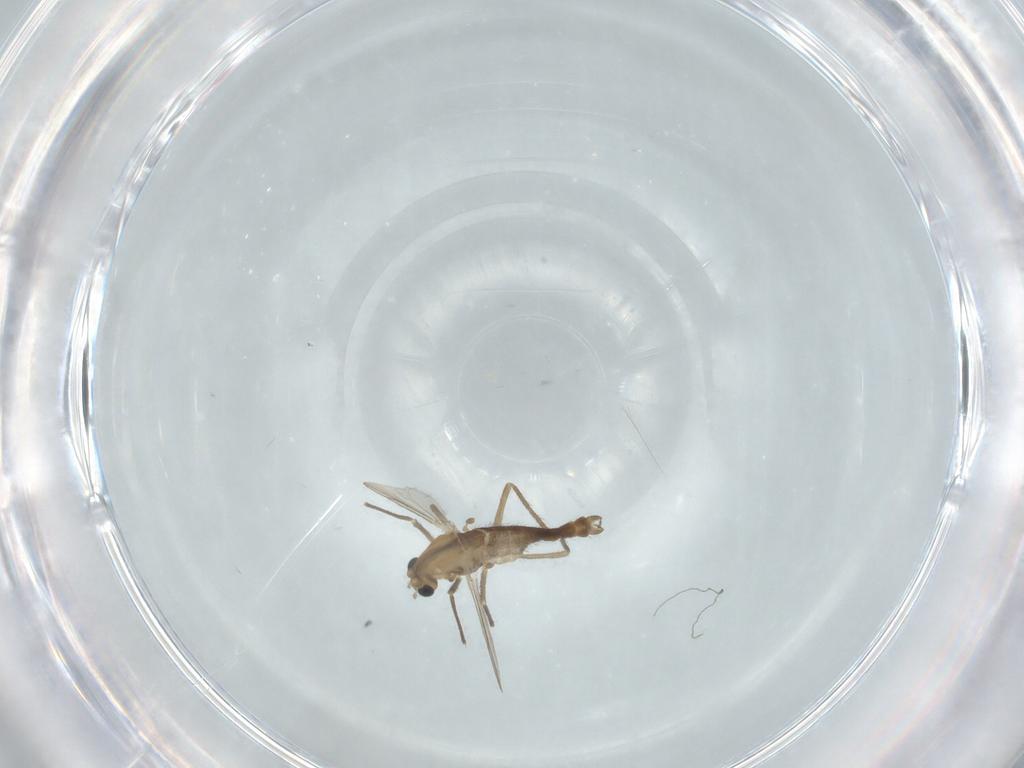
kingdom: Animalia
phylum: Arthropoda
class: Insecta
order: Diptera
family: Chironomidae
